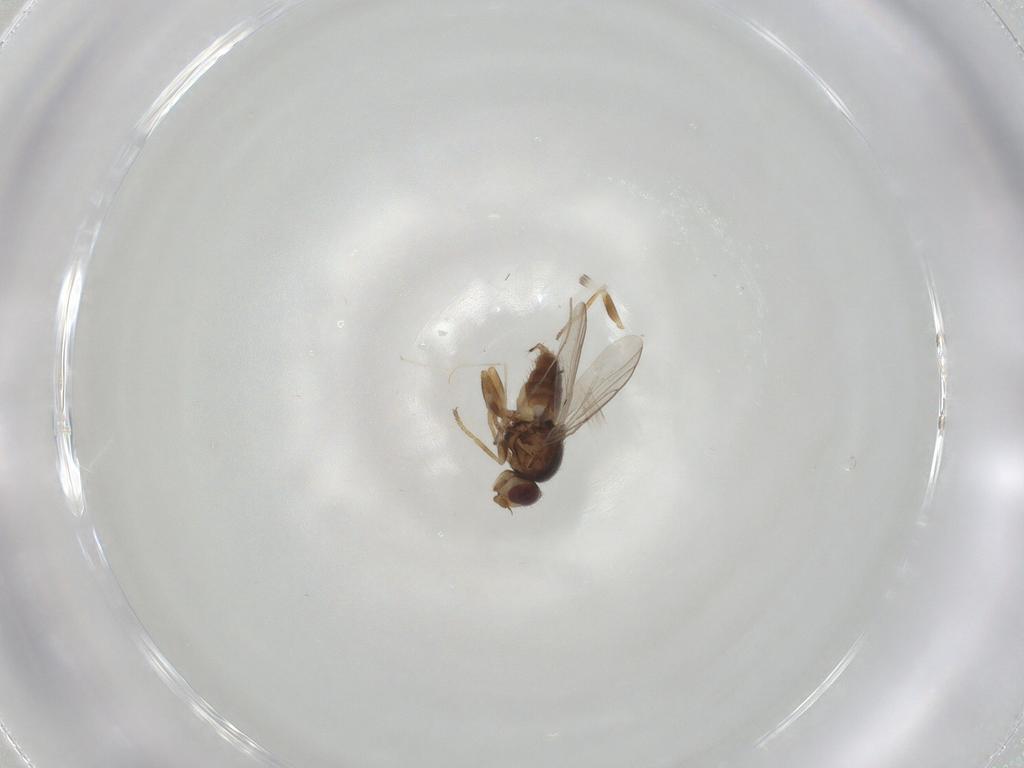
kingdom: Animalia
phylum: Arthropoda
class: Insecta
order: Diptera
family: Chloropidae
